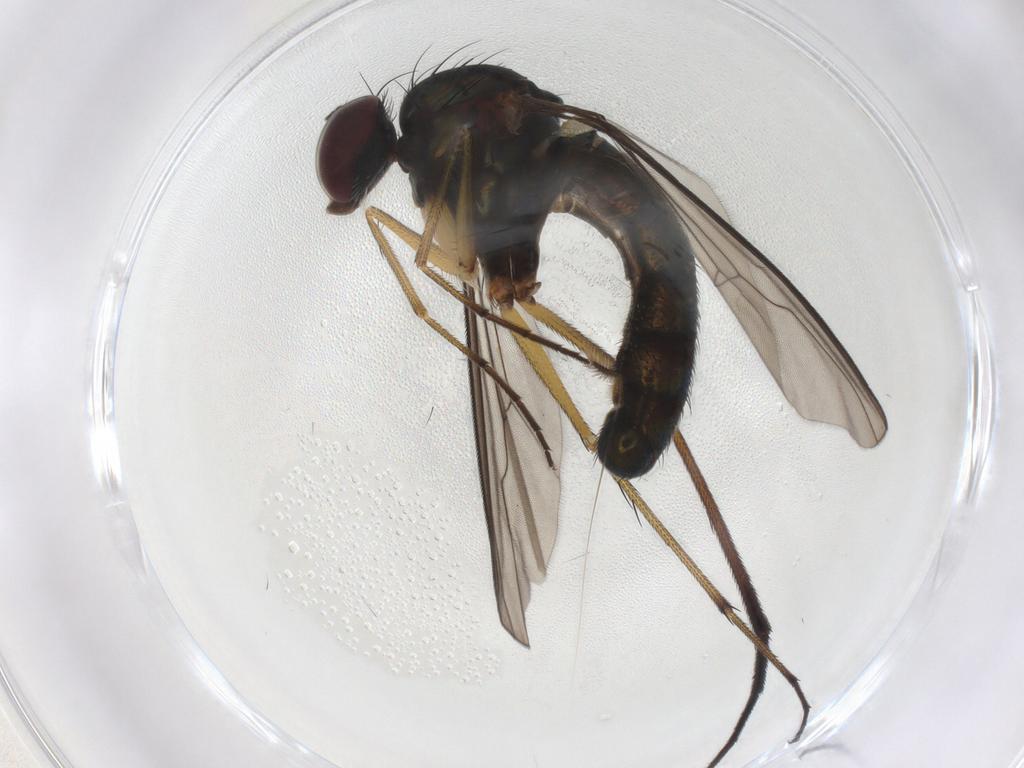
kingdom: Animalia
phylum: Arthropoda
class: Insecta
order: Diptera
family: Dolichopodidae
